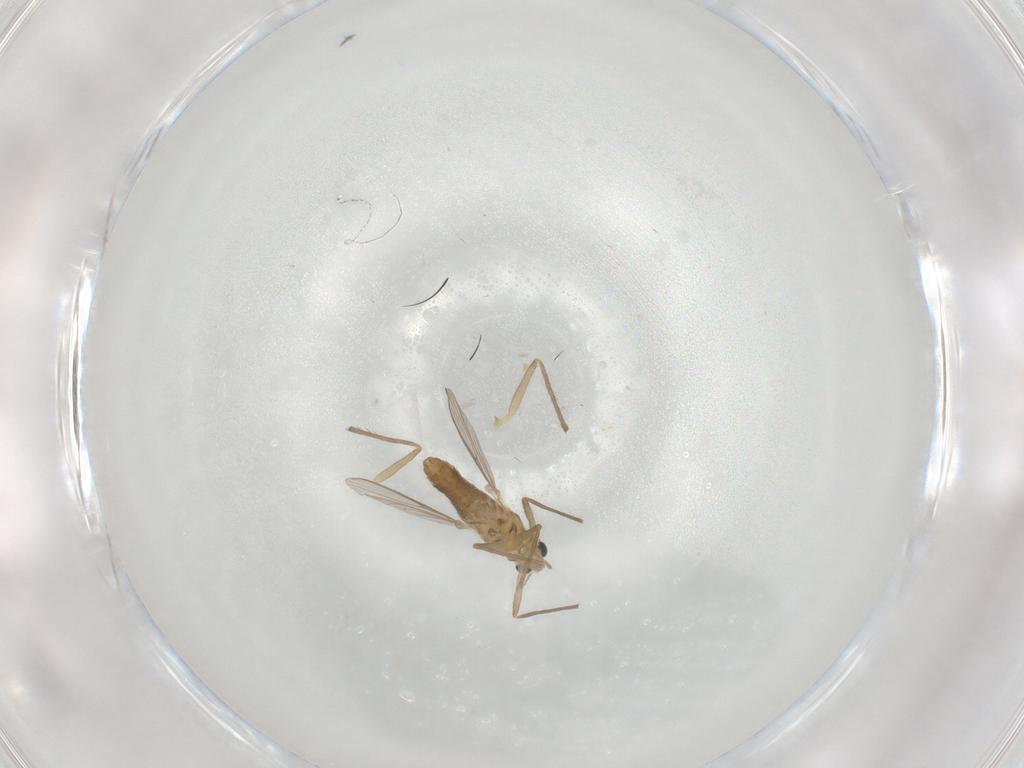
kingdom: Animalia
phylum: Arthropoda
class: Insecta
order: Diptera
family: Chironomidae
